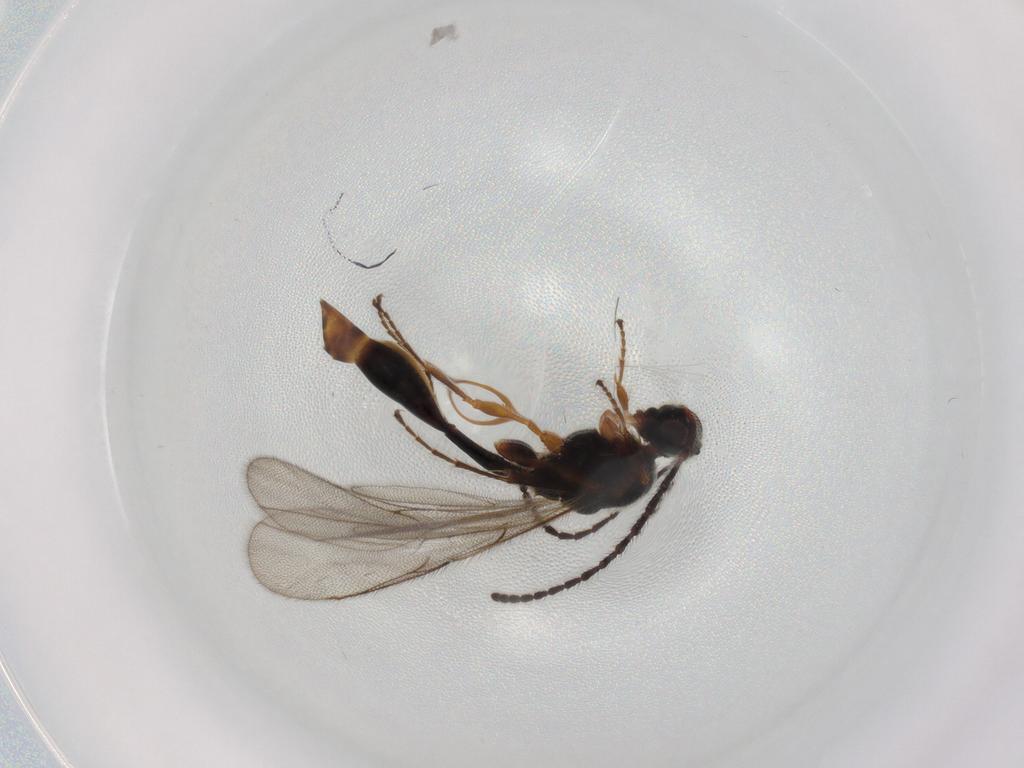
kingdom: Animalia
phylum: Arthropoda
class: Insecta
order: Hymenoptera
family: Diapriidae
